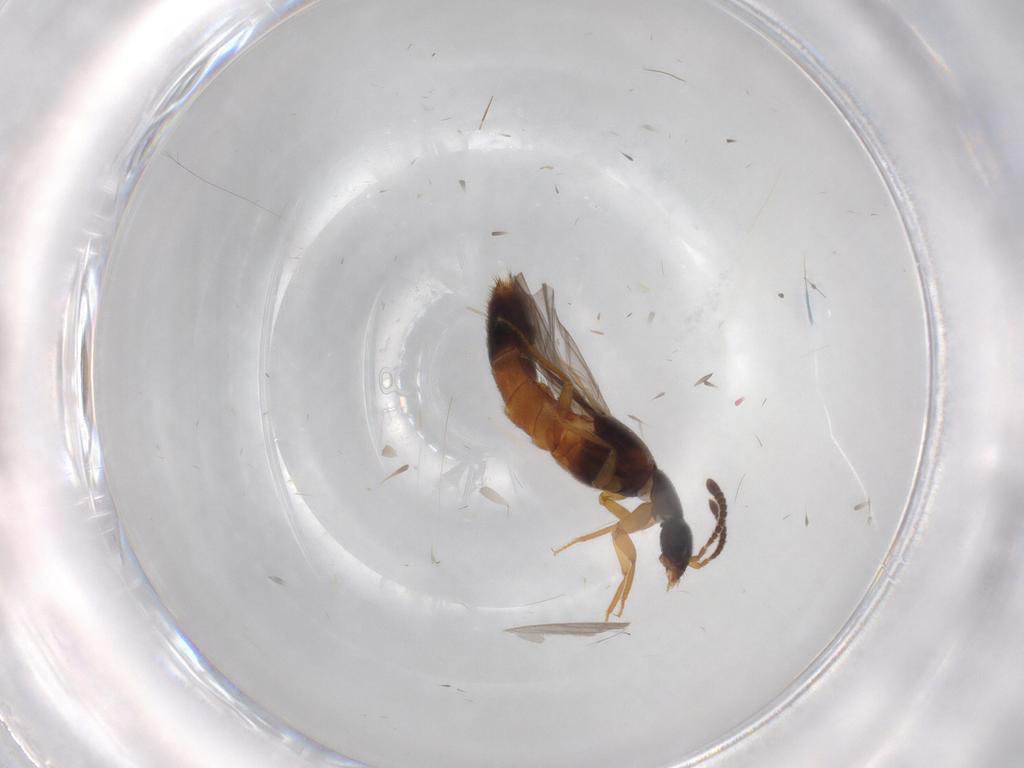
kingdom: Animalia
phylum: Arthropoda
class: Insecta
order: Coleoptera
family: Staphylinidae
